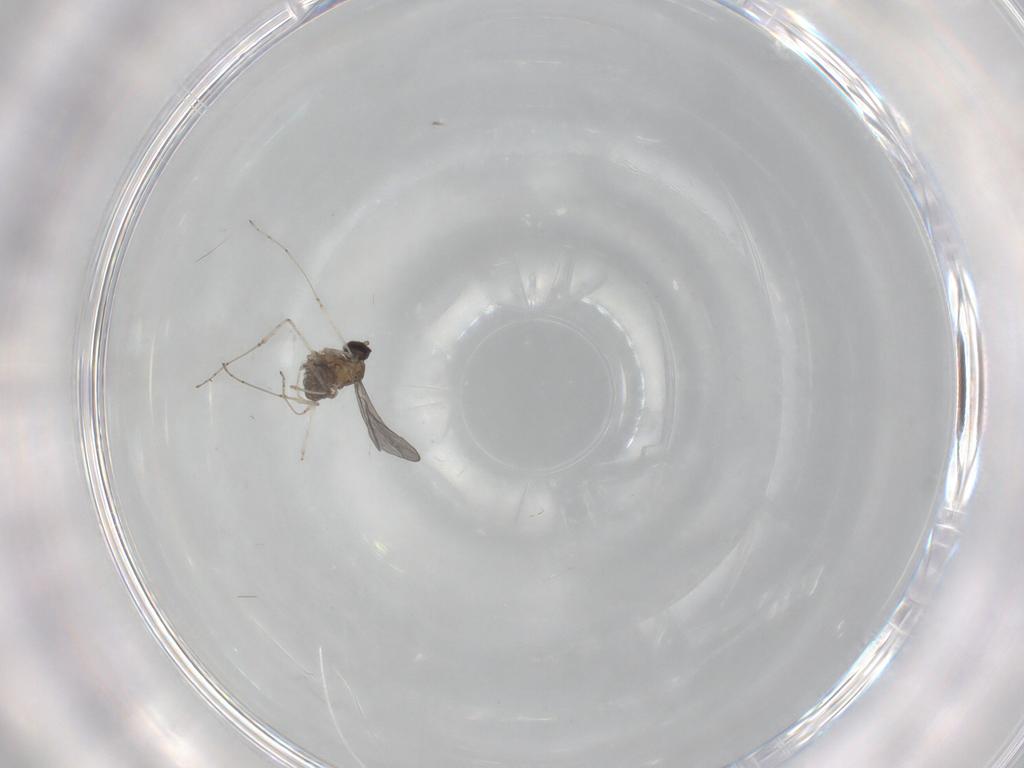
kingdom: Animalia
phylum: Arthropoda
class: Insecta
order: Diptera
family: Cecidomyiidae
